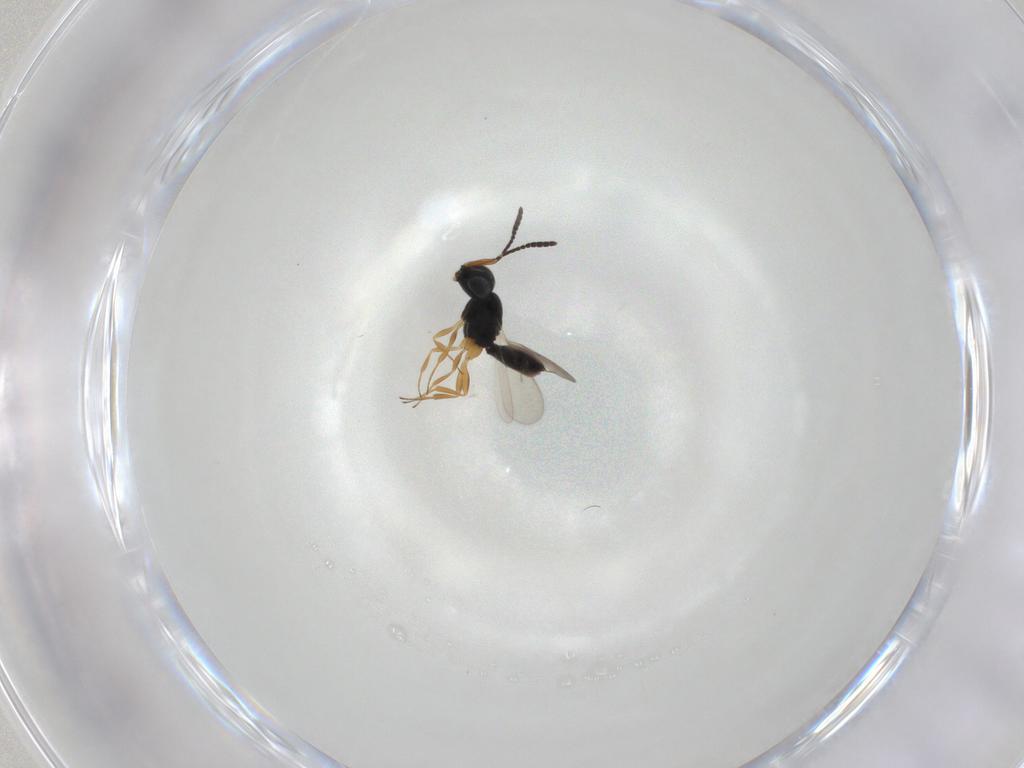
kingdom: Animalia
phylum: Arthropoda
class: Insecta
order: Hymenoptera
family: Scelionidae
